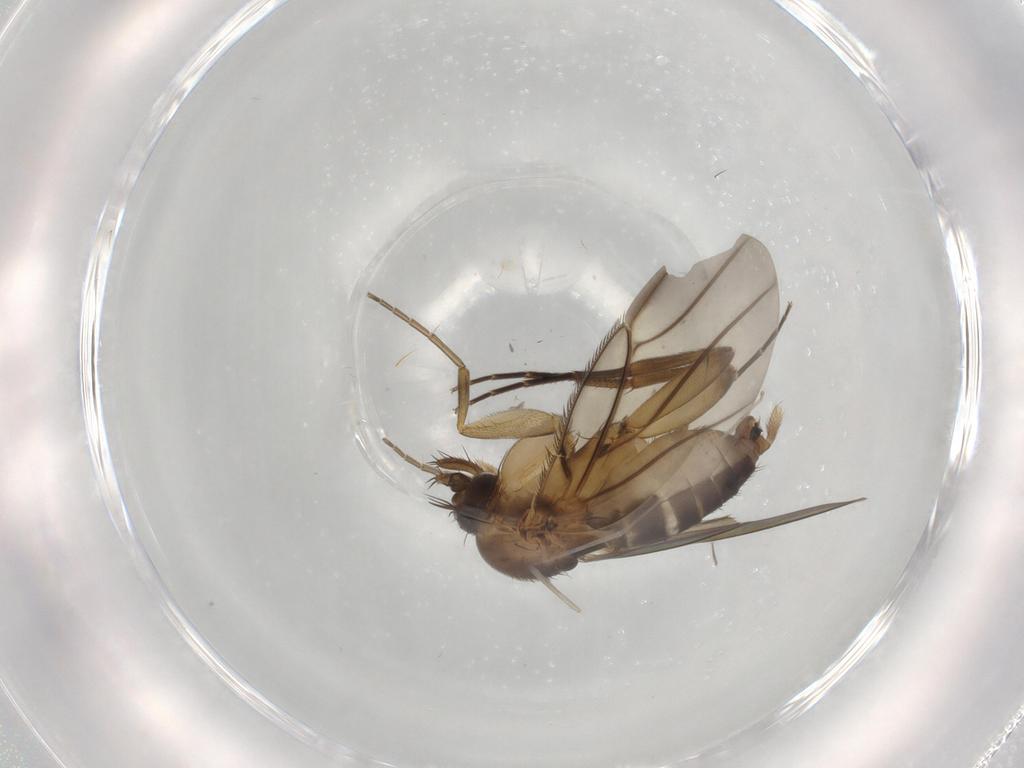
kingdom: Animalia
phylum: Arthropoda
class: Insecta
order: Diptera
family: Phoridae
